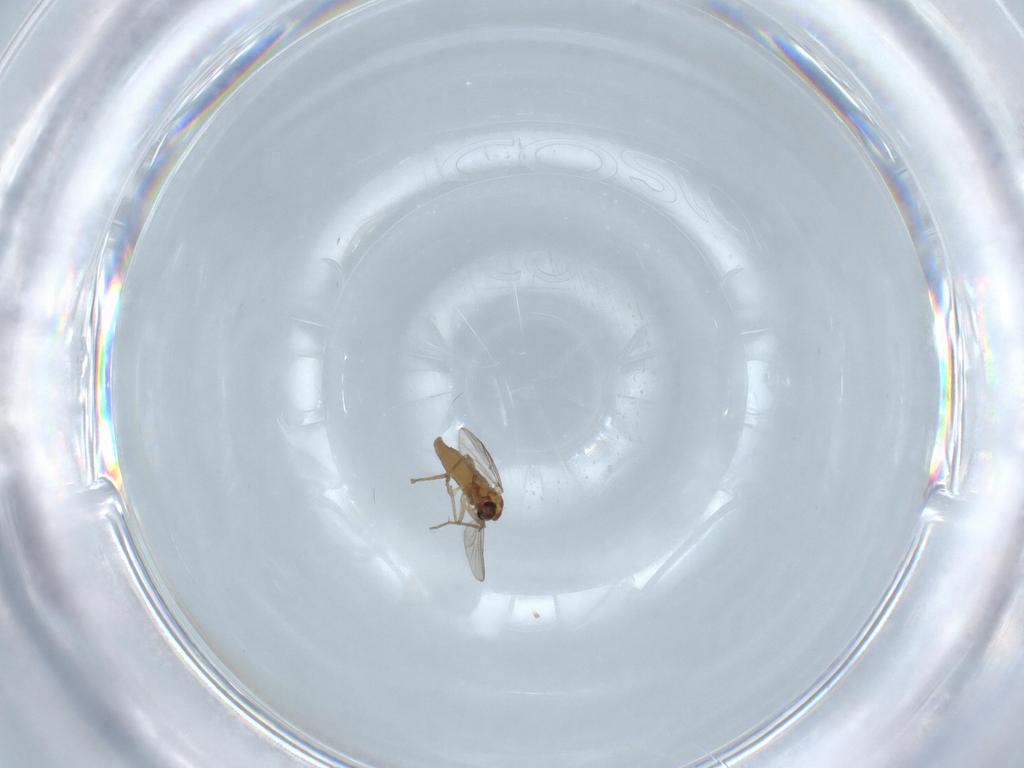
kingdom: Animalia
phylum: Arthropoda
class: Insecta
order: Diptera
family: Chironomidae
